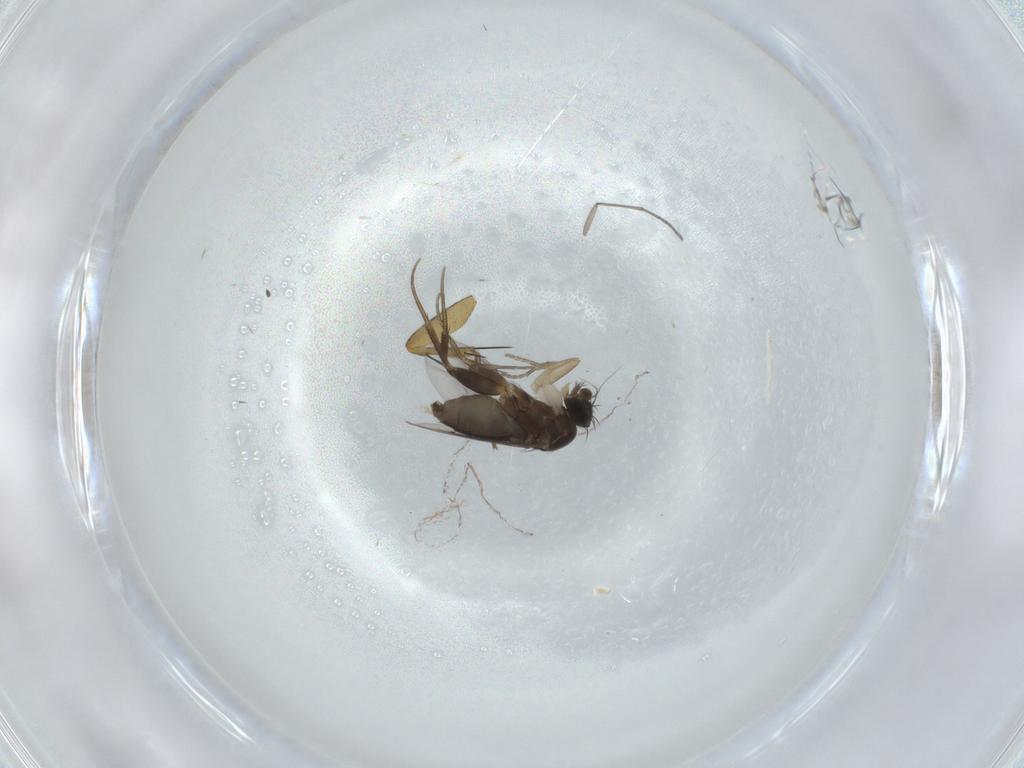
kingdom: Animalia
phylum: Arthropoda
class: Insecta
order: Diptera
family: Phoridae
